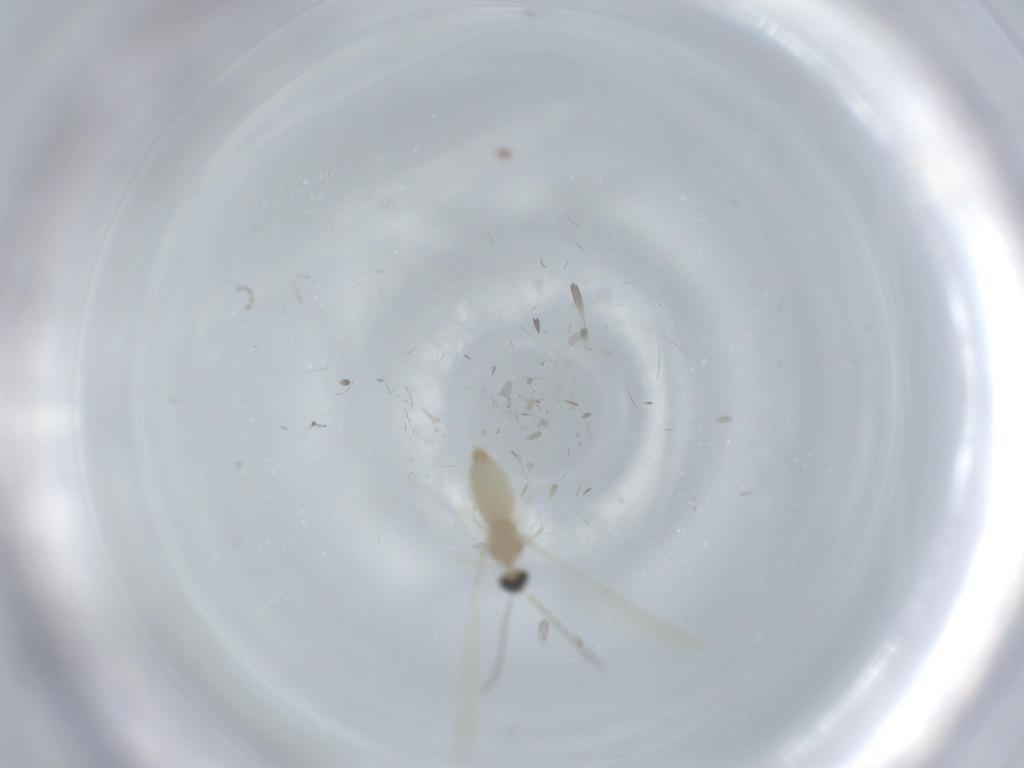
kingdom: Animalia
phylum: Arthropoda
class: Insecta
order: Diptera
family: Cecidomyiidae
